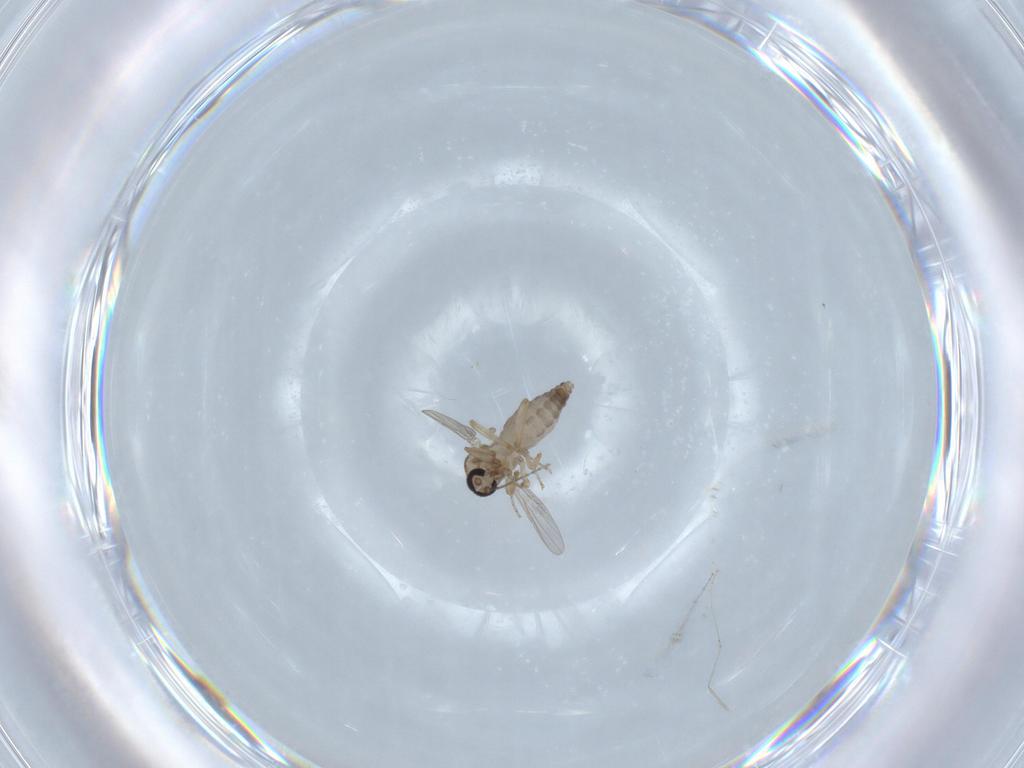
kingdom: Animalia
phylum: Arthropoda
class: Insecta
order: Diptera
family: Ceratopogonidae
